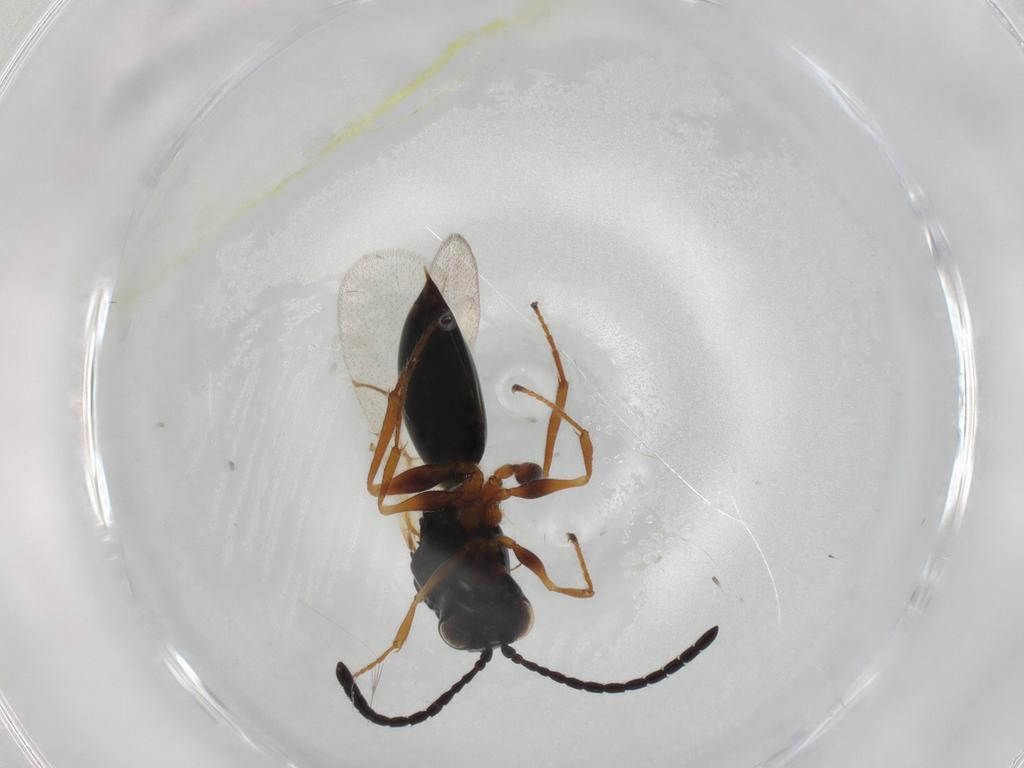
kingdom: Animalia
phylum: Arthropoda
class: Insecta
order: Hymenoptera
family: Figitidae
